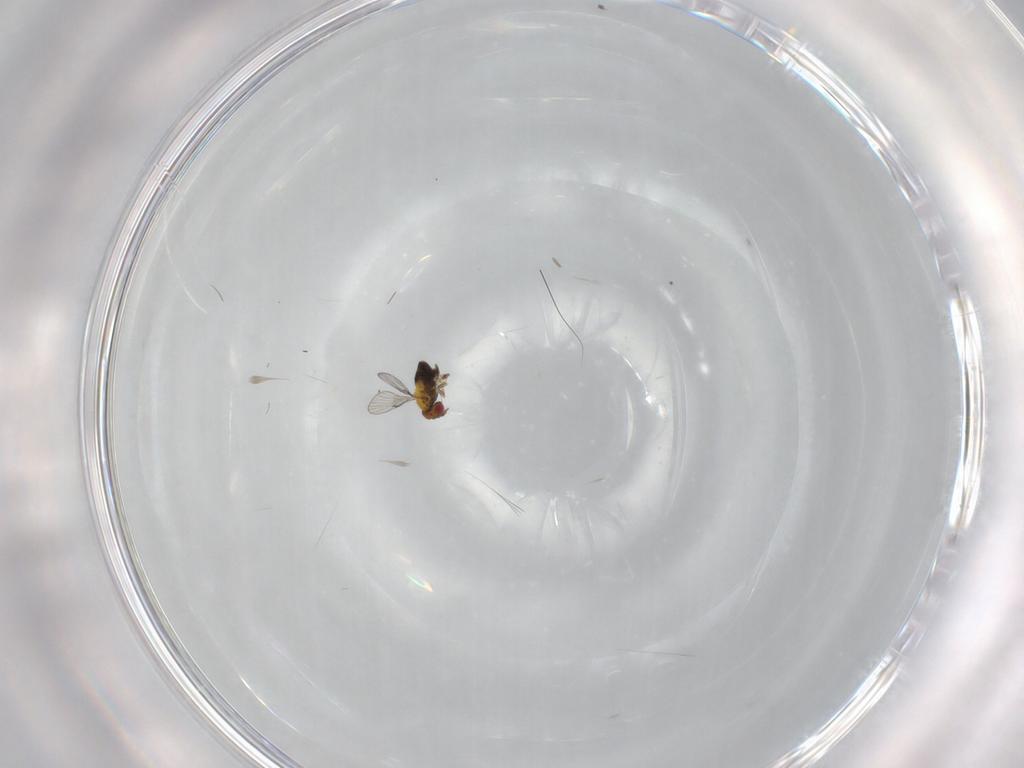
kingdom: Animalia
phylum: Arthropoda
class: Insecta
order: Hymenoptera
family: Trichogrammatidae
